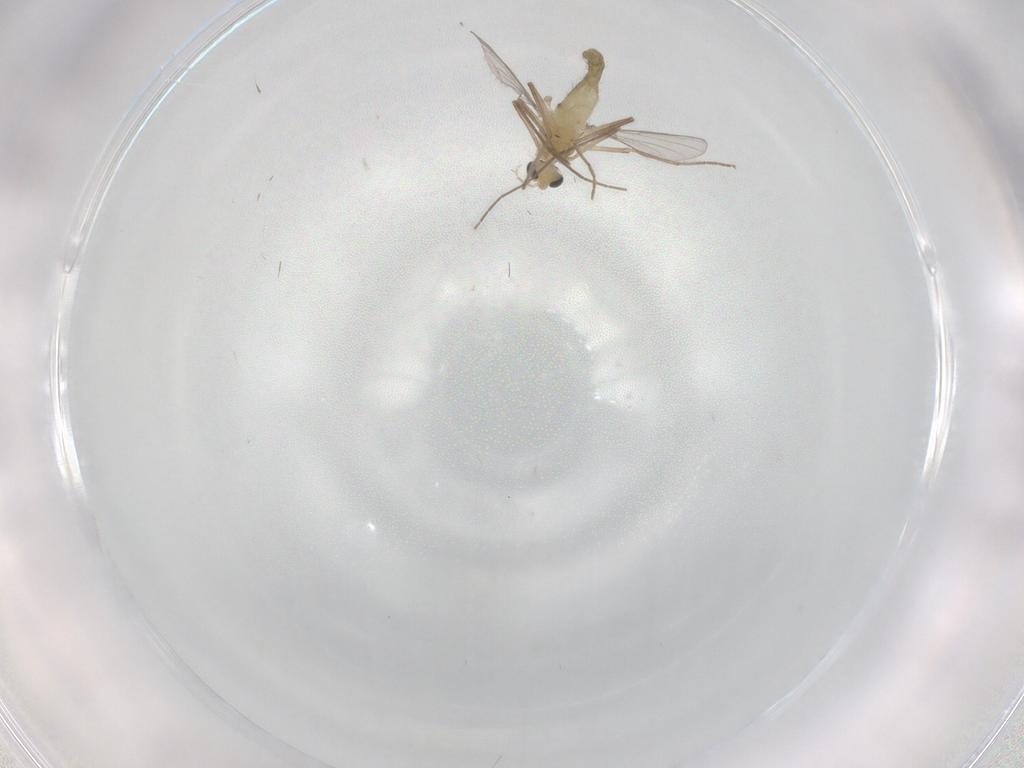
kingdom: Animalia
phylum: Arthropoda
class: Insecta
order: Diptera
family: Chironomidae
